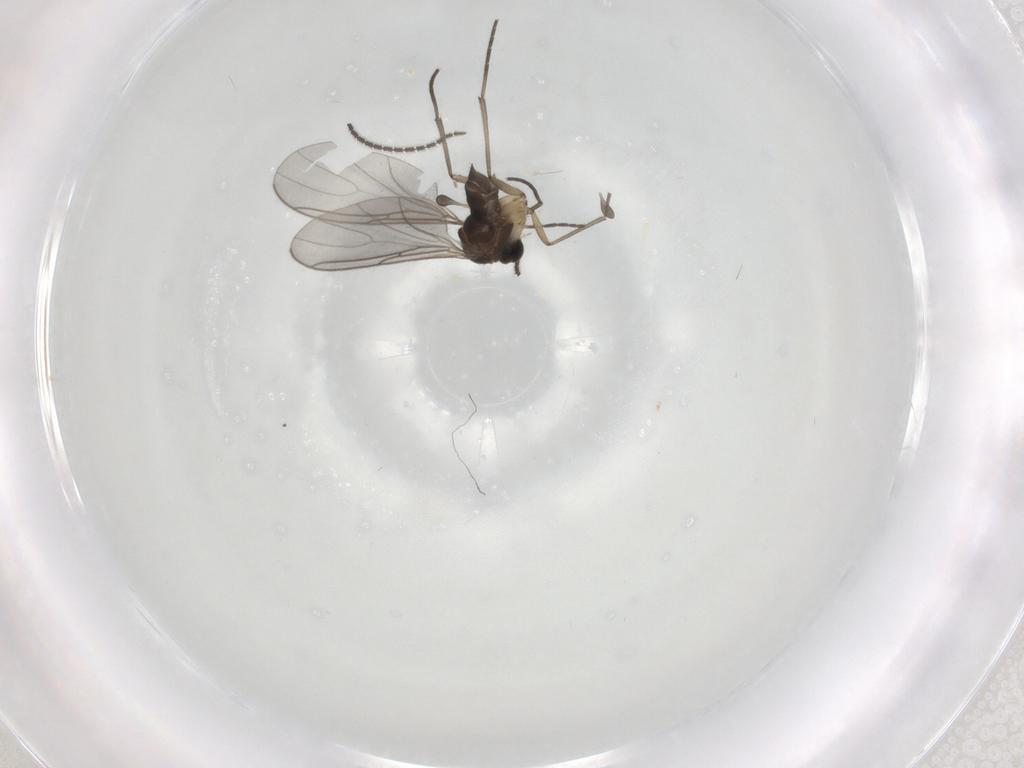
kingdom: Animalia
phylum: Arthropoda
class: Insecta
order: Diptera
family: Sciaridae
